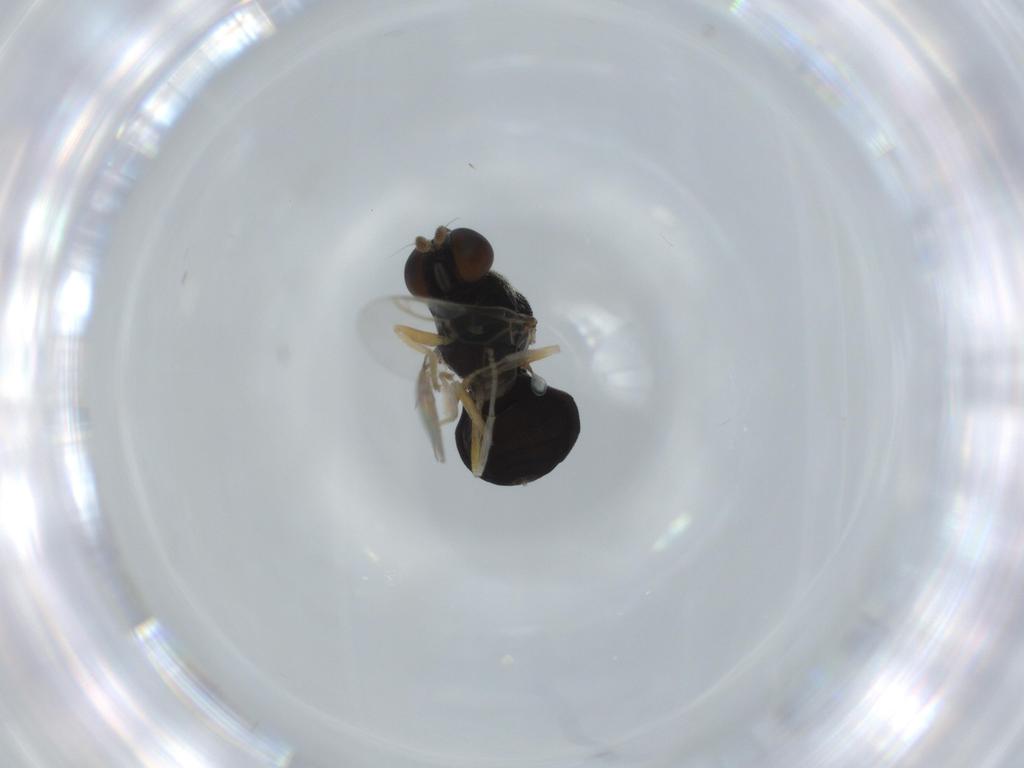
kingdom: Animalia
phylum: Arthropoda
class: Insecta
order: Diptera
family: Stratiomyidae
